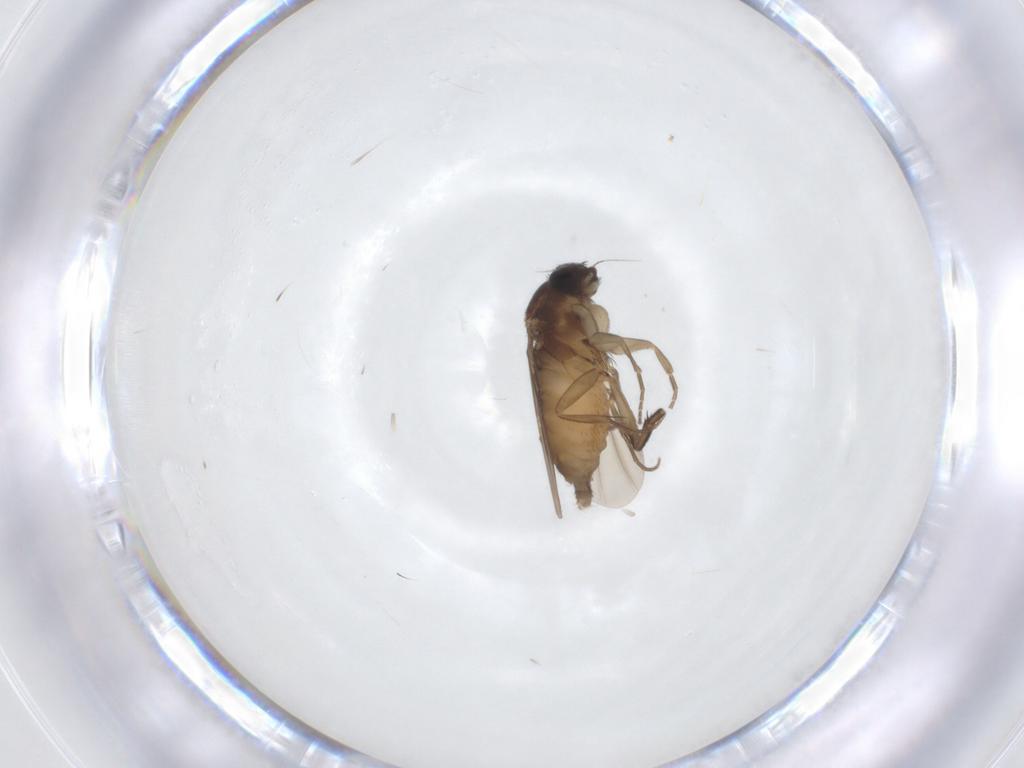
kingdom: Animalia
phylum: Arthropoda
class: Insecta
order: Diptera
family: Phoridae
